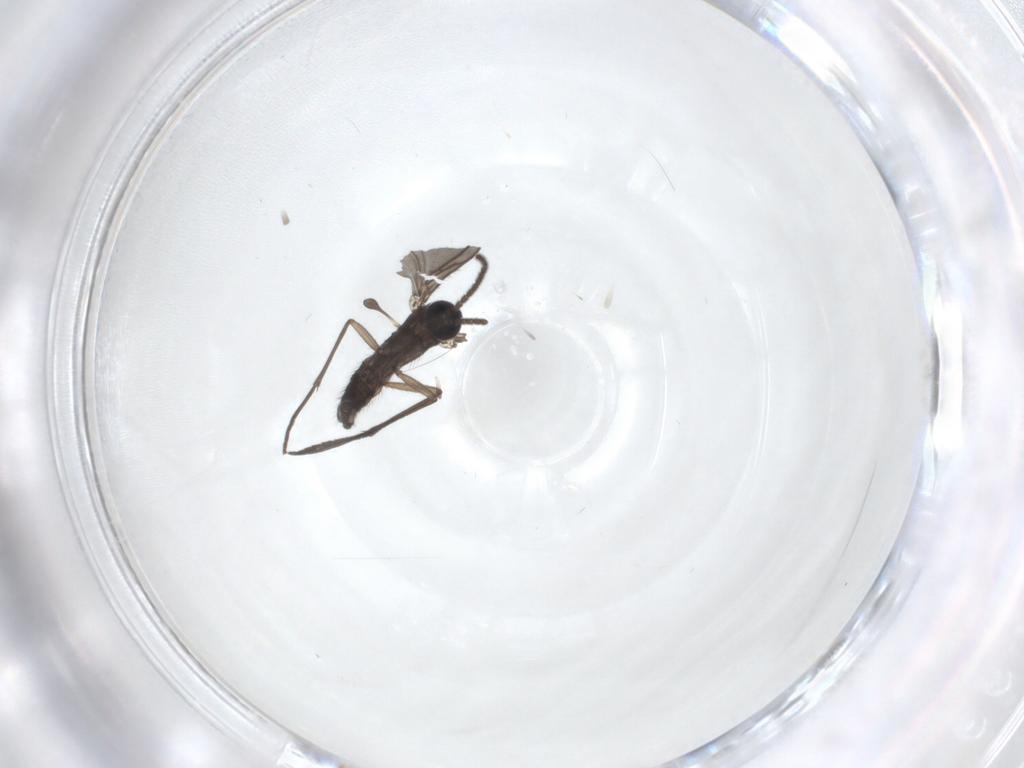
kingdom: Animalia
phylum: Arthropoda
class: Insecta
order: Diptera
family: Sciaridae
